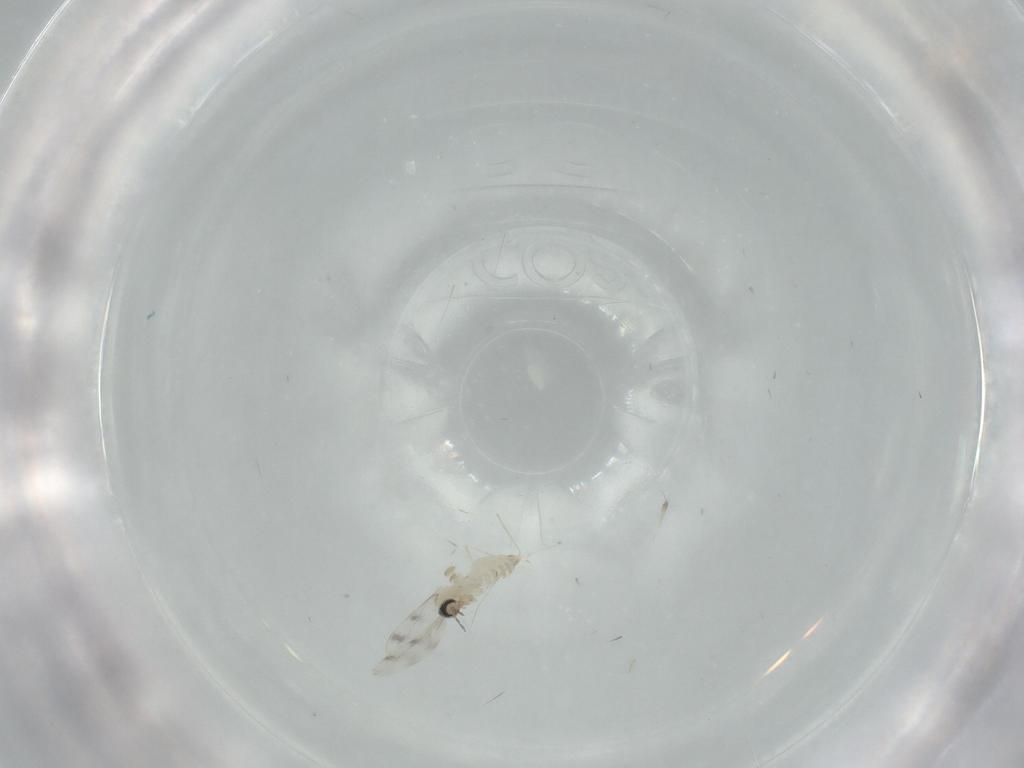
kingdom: Animalia
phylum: Arthropoda
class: Insecta
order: Diptera
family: Cecidomyiidae
